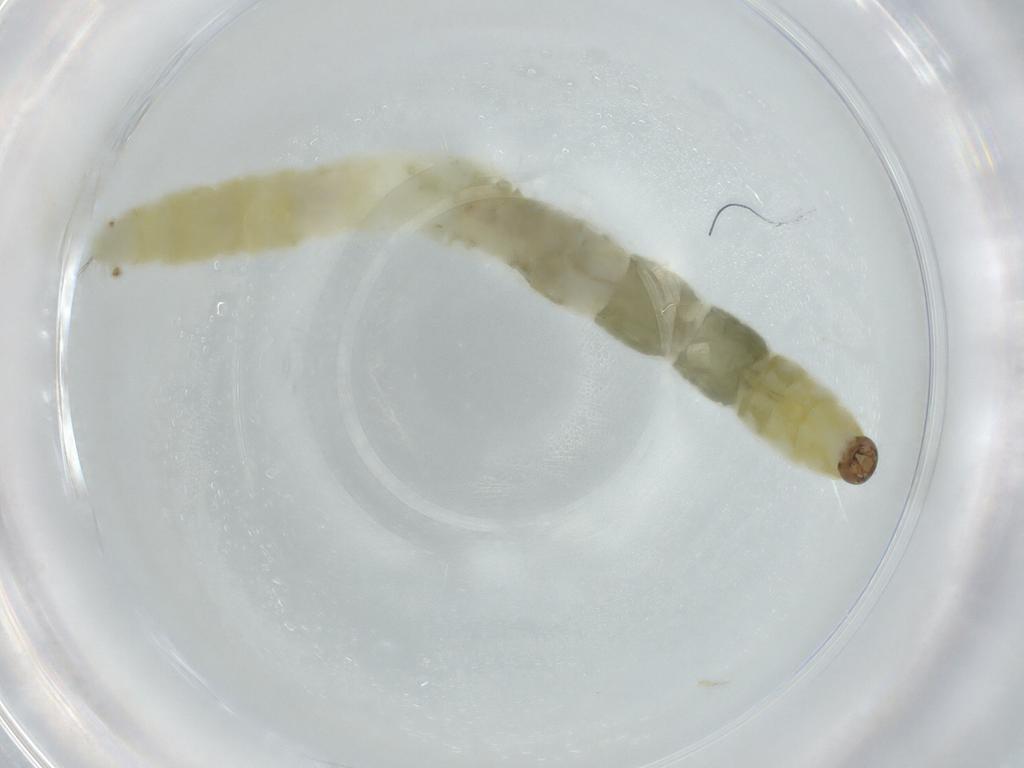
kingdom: Animalia
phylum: Arthropoda
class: Insecta
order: Diptera
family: Chironomidae
